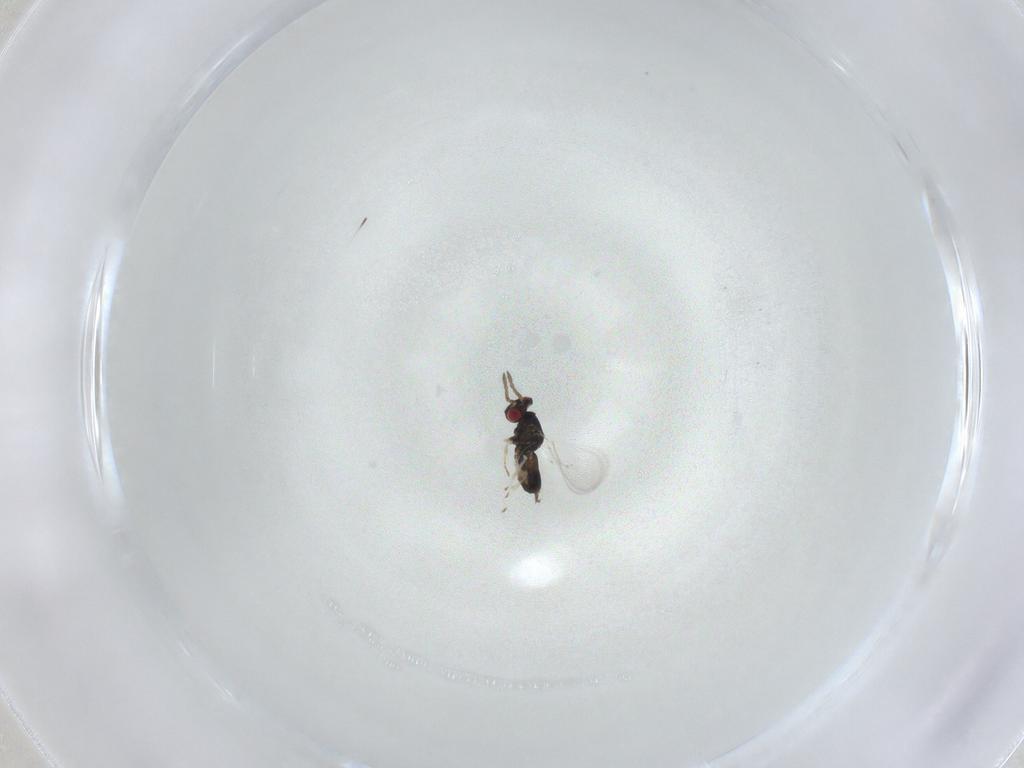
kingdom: Animalia
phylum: Arthropoda
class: Insecta
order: Hymenoptera
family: Eulophidae
